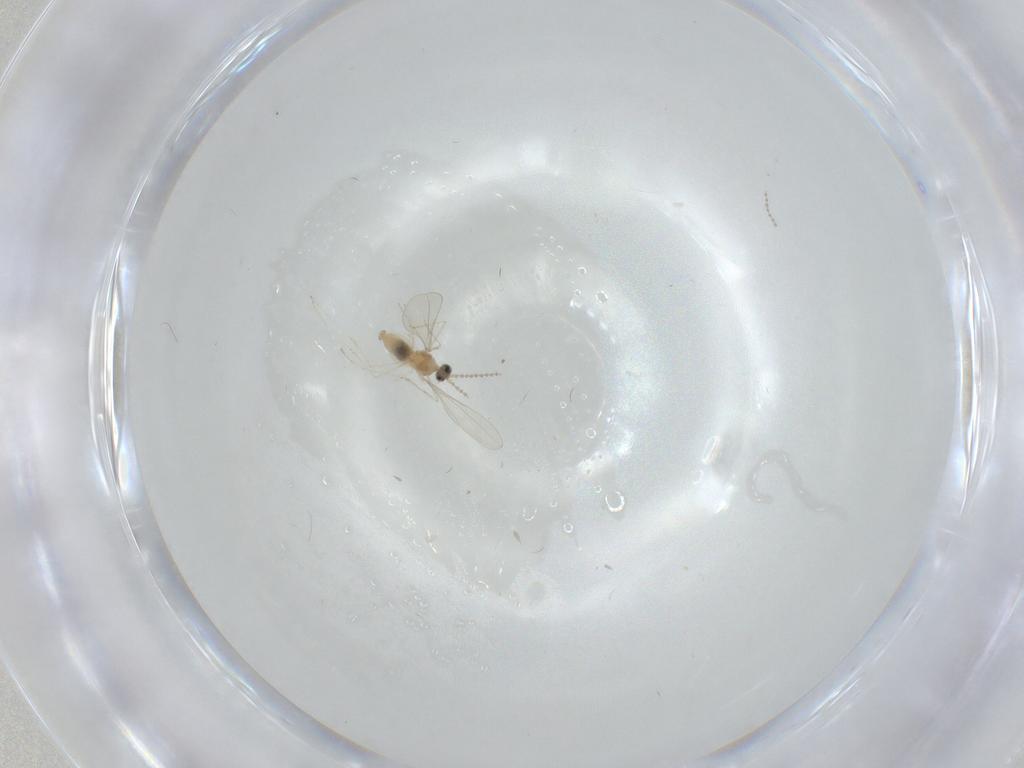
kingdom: Animalia
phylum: Arthropoda
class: Insecta
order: Diptera
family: Cecidomyiidae
